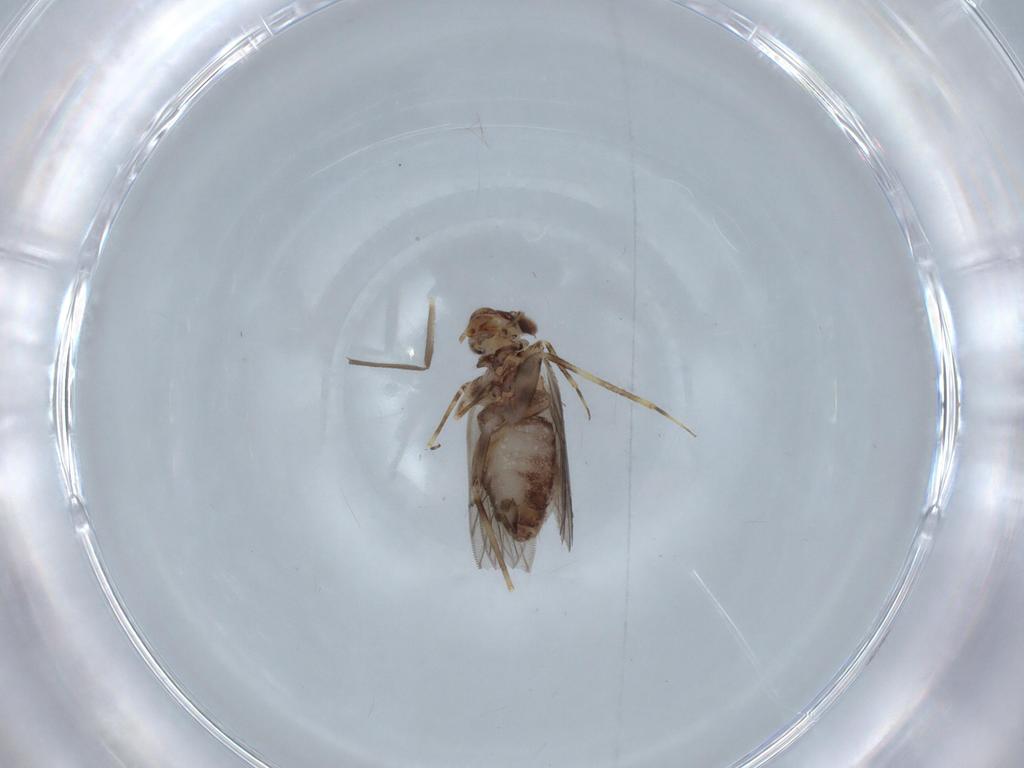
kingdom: Animalia
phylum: Arthropoda
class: Insecta
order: Psocodea
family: Lepidopsocidae
